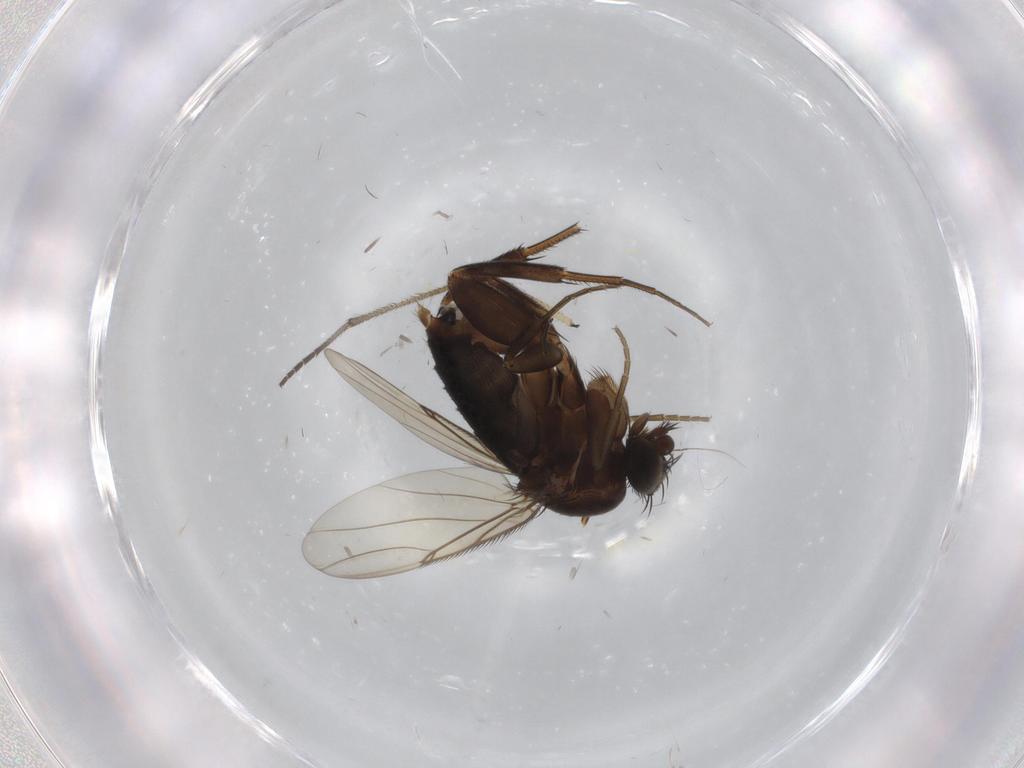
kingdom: Animalia
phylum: Arthropoda
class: Insecta
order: Diptera
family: Phoridae
